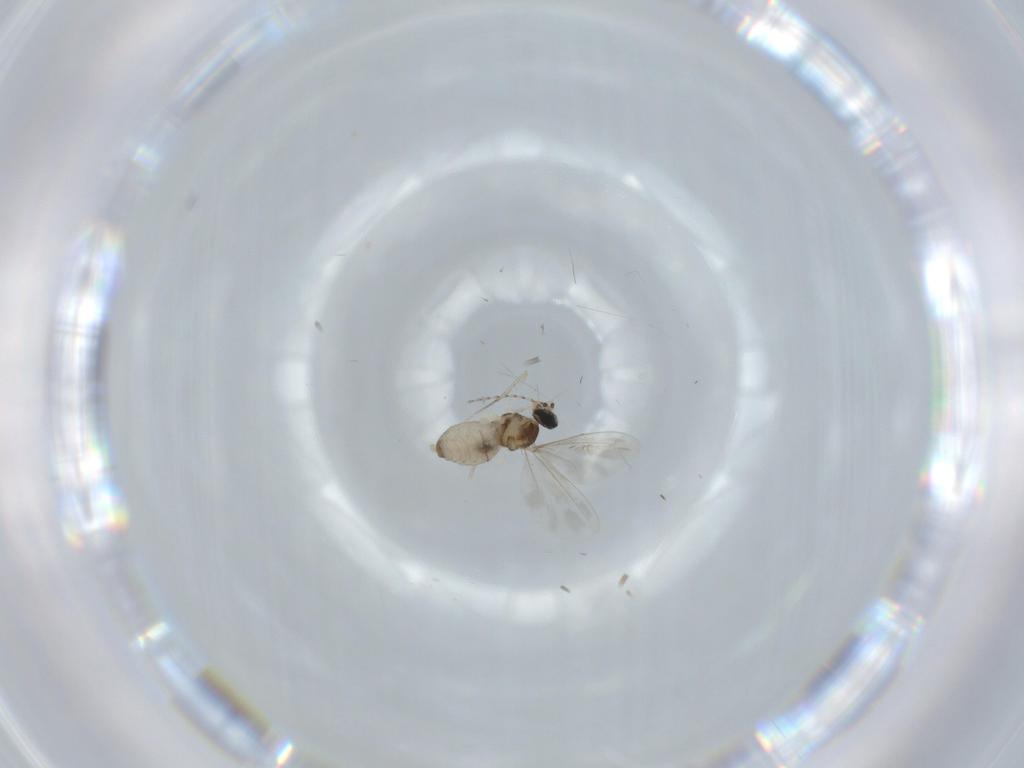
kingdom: Animalia
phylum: Arthropoda
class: Insecta
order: Diptera
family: Tabanidae
